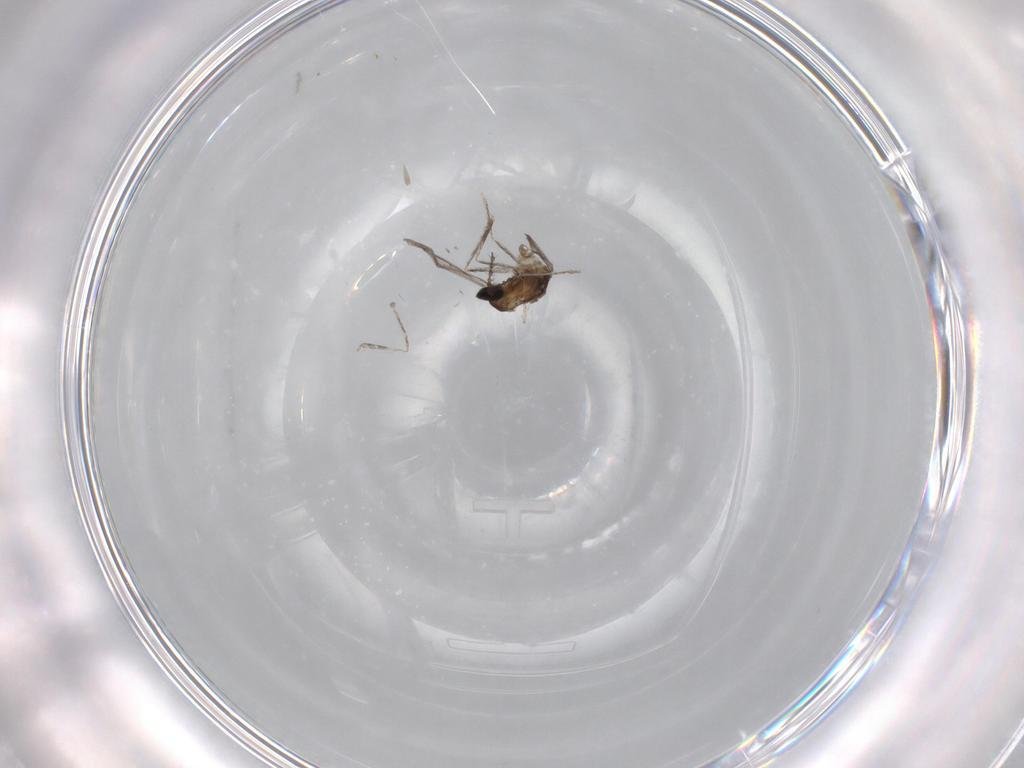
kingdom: Animalia
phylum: Arthropoda
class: Insecta
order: Diptera
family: Cecidomyiidae
